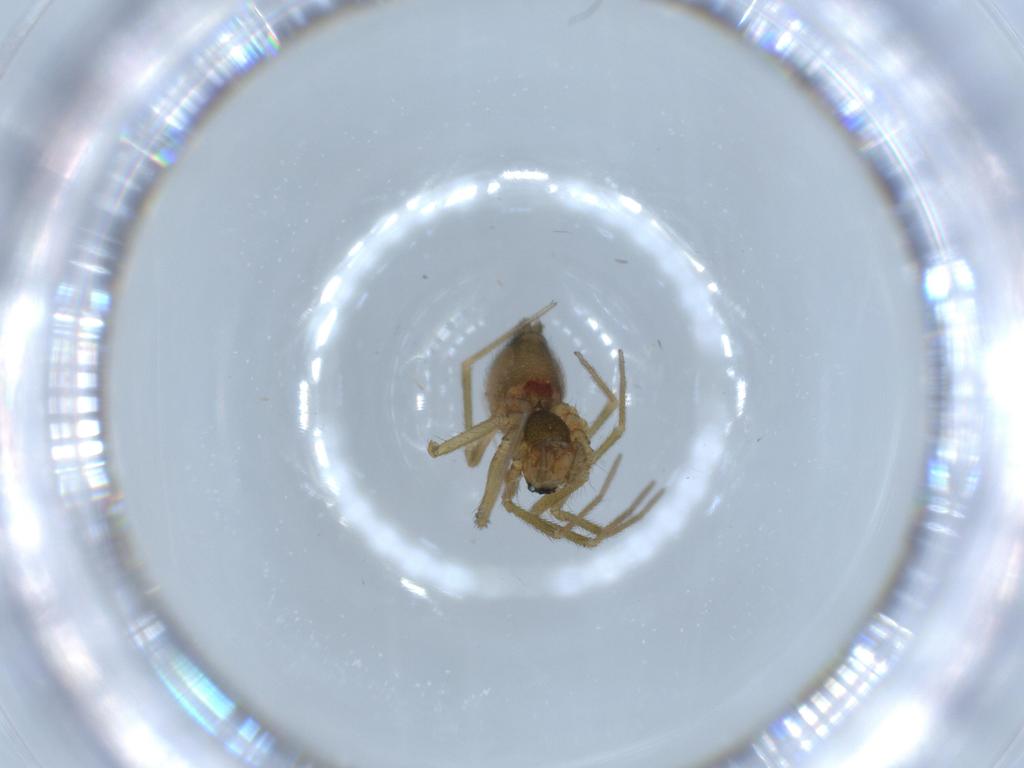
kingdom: Animalia
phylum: Arthropoda
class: Arachnida
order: Araneae
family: Linyphiidae
